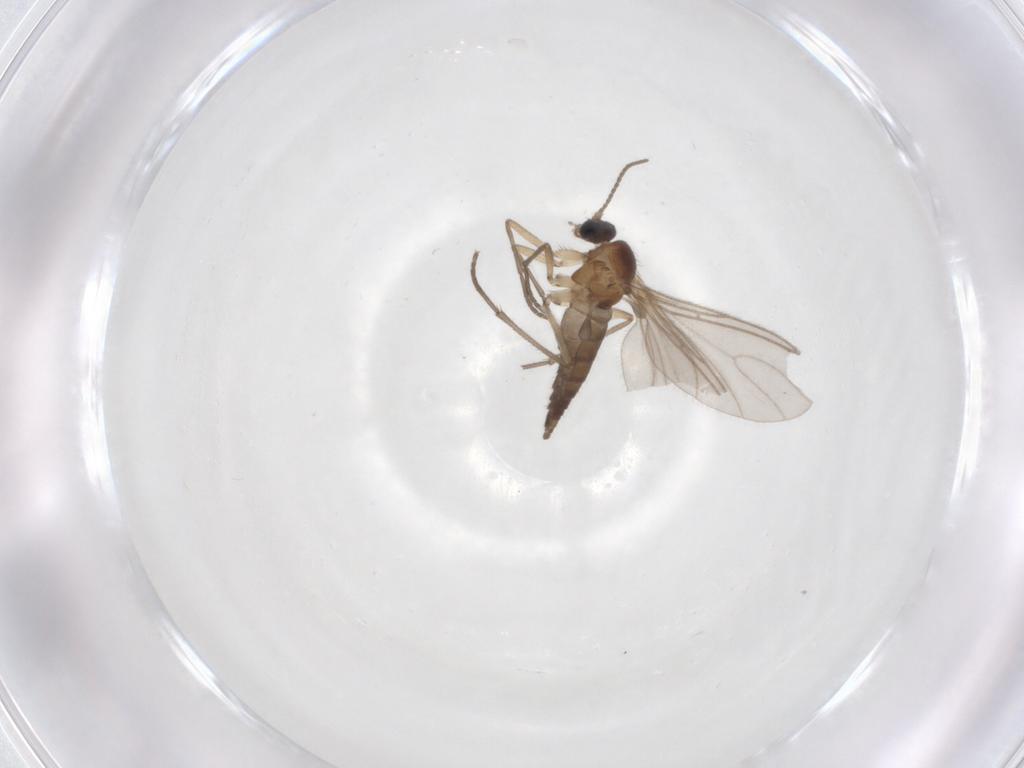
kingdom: Animalia
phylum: Arthropoda
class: Insecta
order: Diptera
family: Sciaridae
